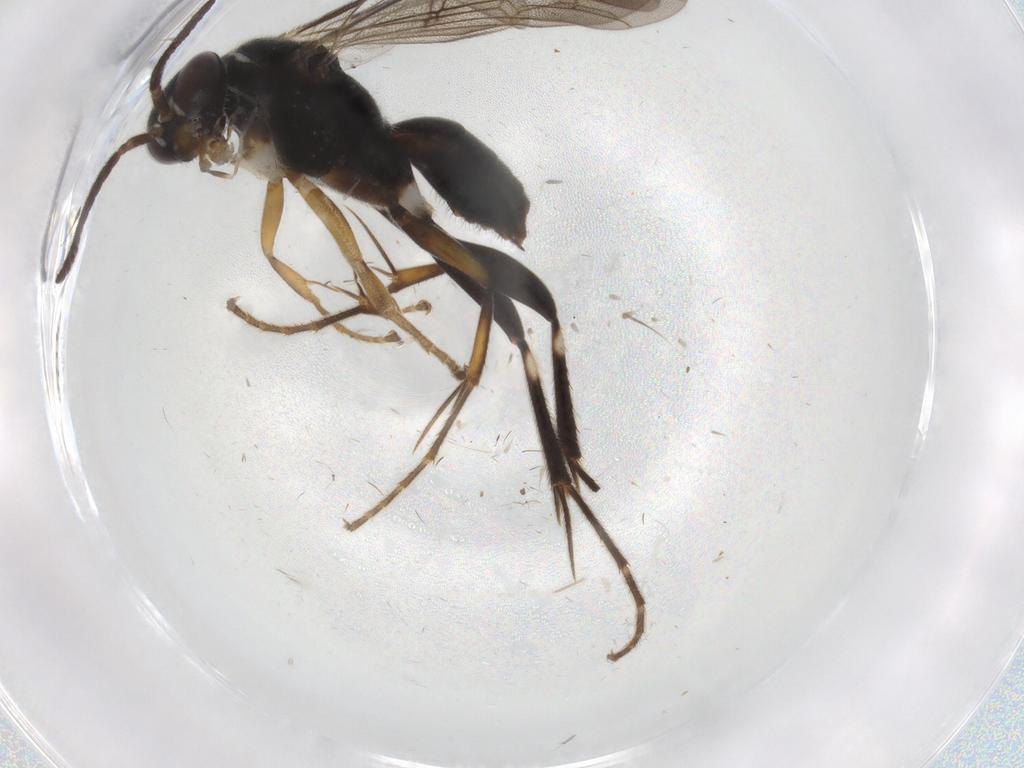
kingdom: Animalia
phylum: Arthropoda
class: Insecta
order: Hymenoptera
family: Pompilidae
